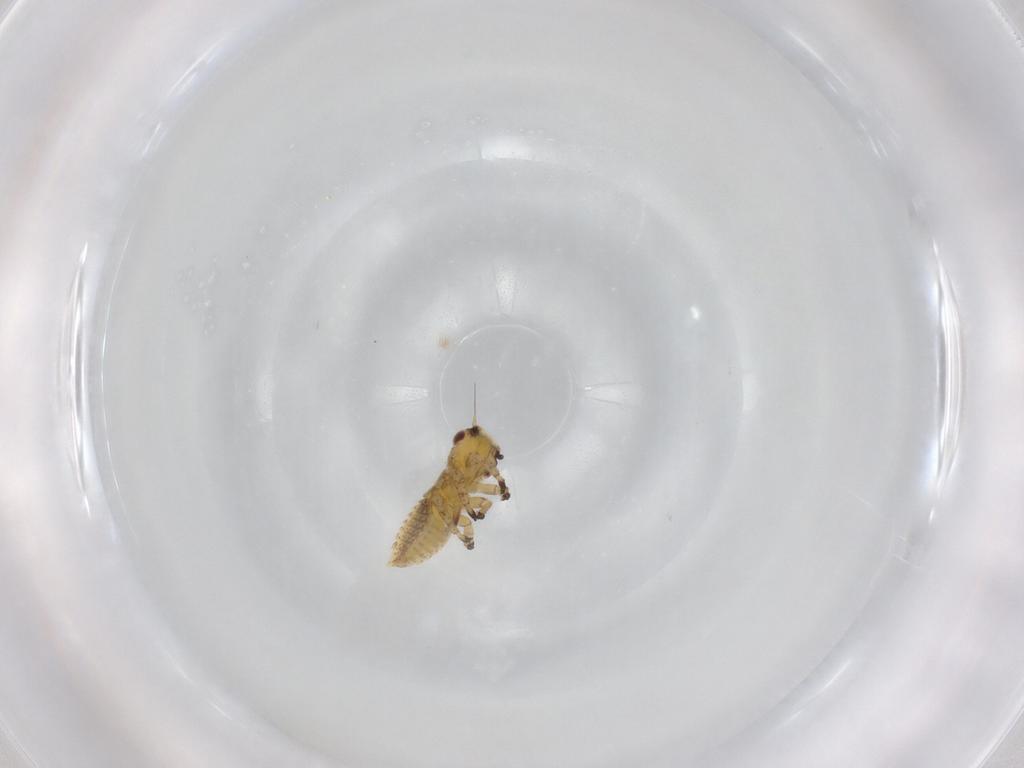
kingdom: Animalia
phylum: Arthropoda
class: Insecta
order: Hemiptera
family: Cicadellidae
